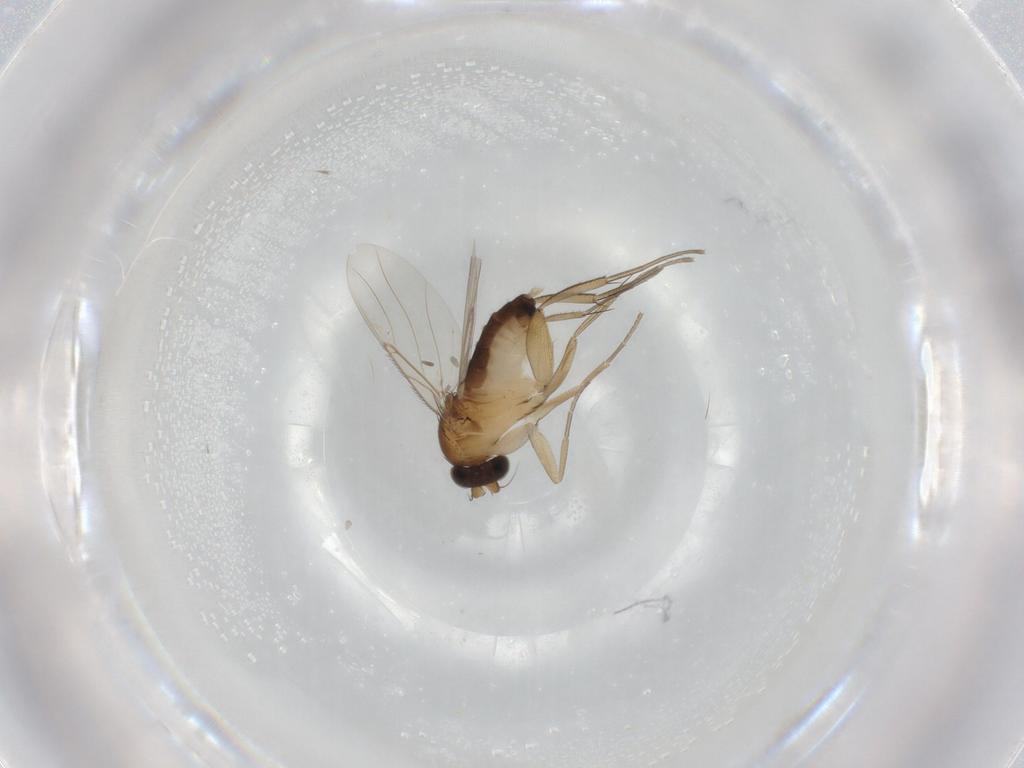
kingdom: Animalia
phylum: Arthropoda
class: Insecta
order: Diptera
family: Phoridae
